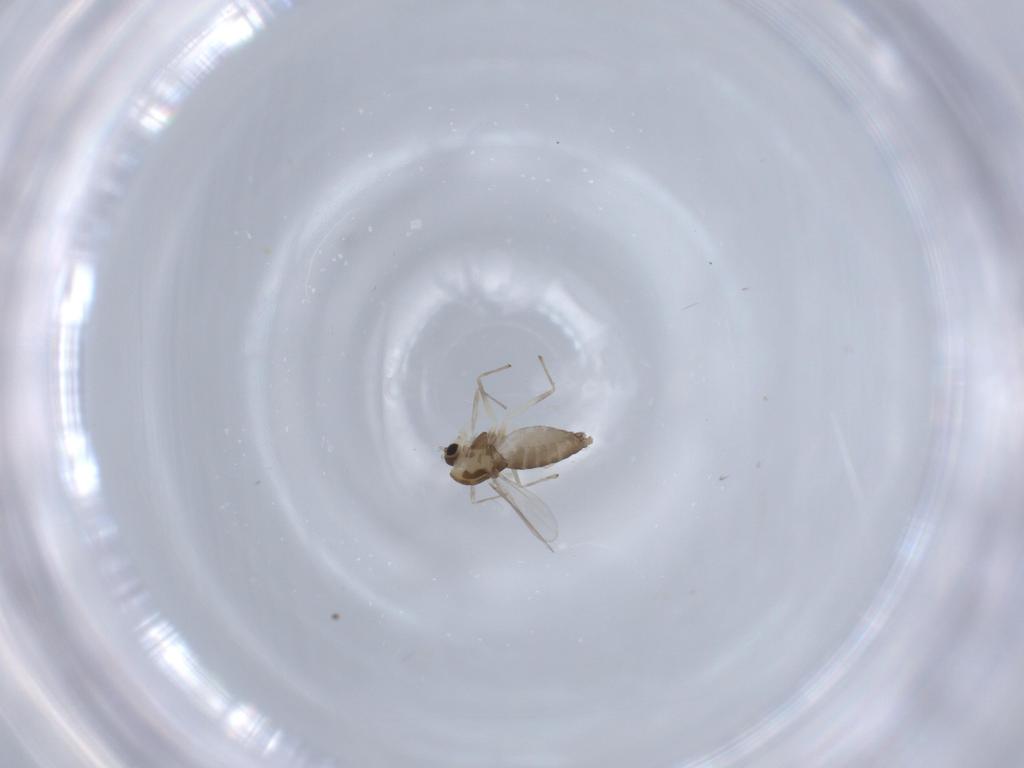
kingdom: Animalia
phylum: Arthropoda
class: Insecta
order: Diptera
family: Chironomidae
